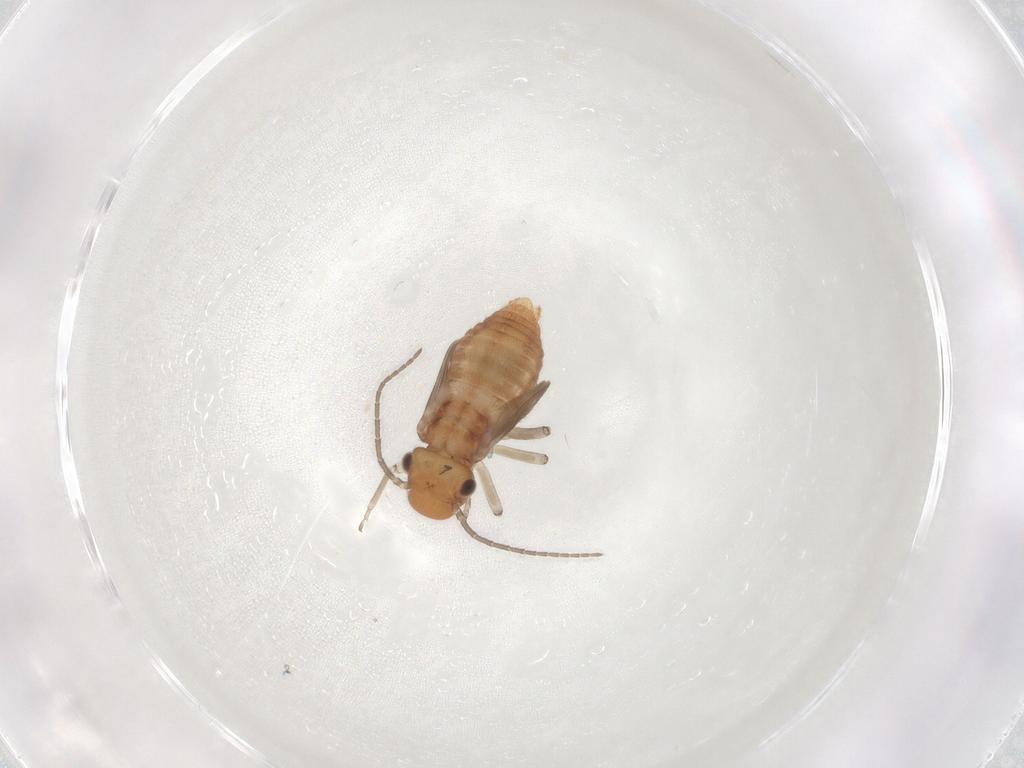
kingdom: Animalia
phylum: Arthropoda
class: Insecta
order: Psocodea
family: Caeciliusidae
